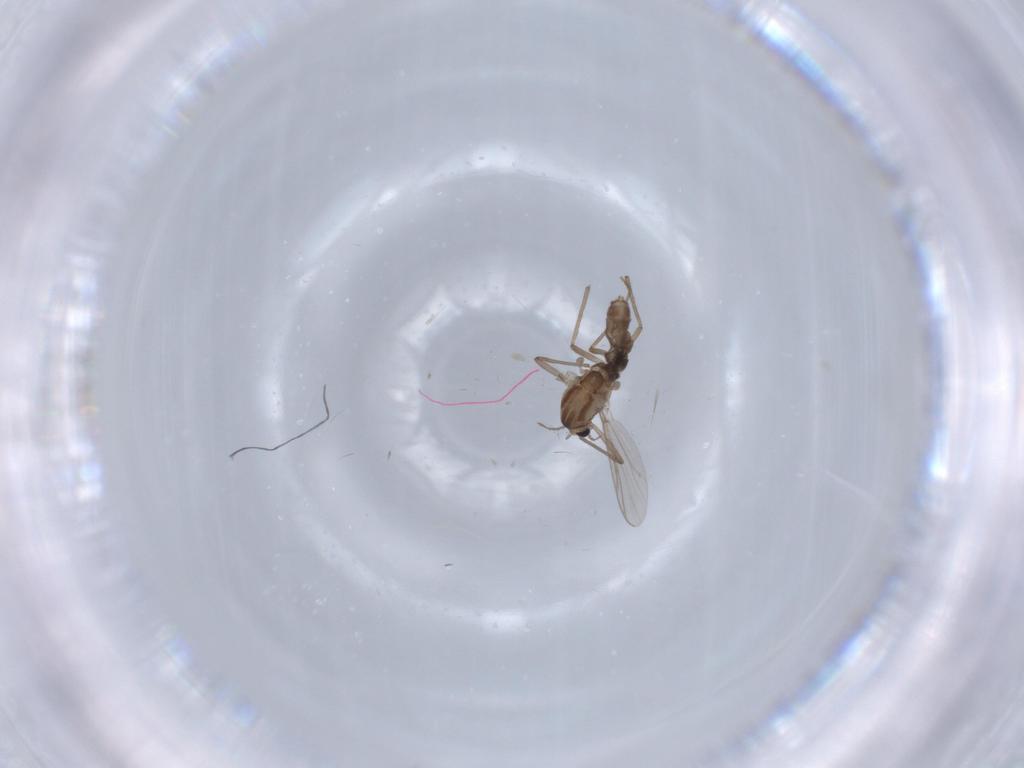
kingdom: Animalia
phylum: Arthropoda
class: Insecta
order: Diptera
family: Chironomidae
